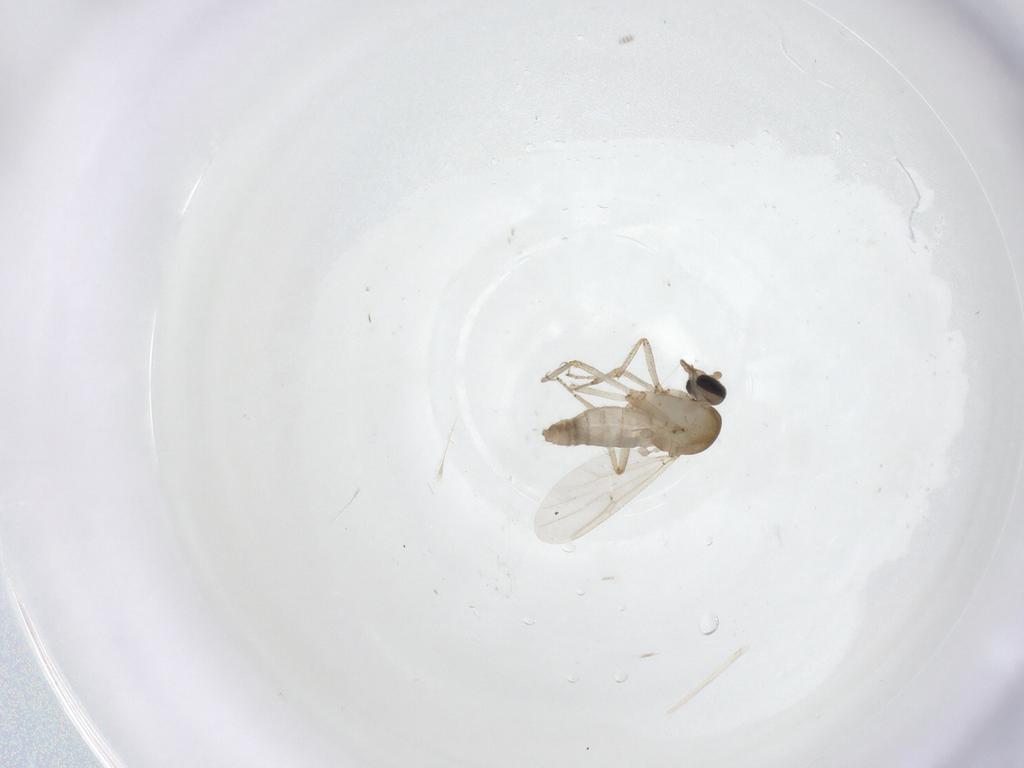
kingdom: Animalia
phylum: Arthropoda
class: Insecta
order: Diptera
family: Ceratopogonidae
